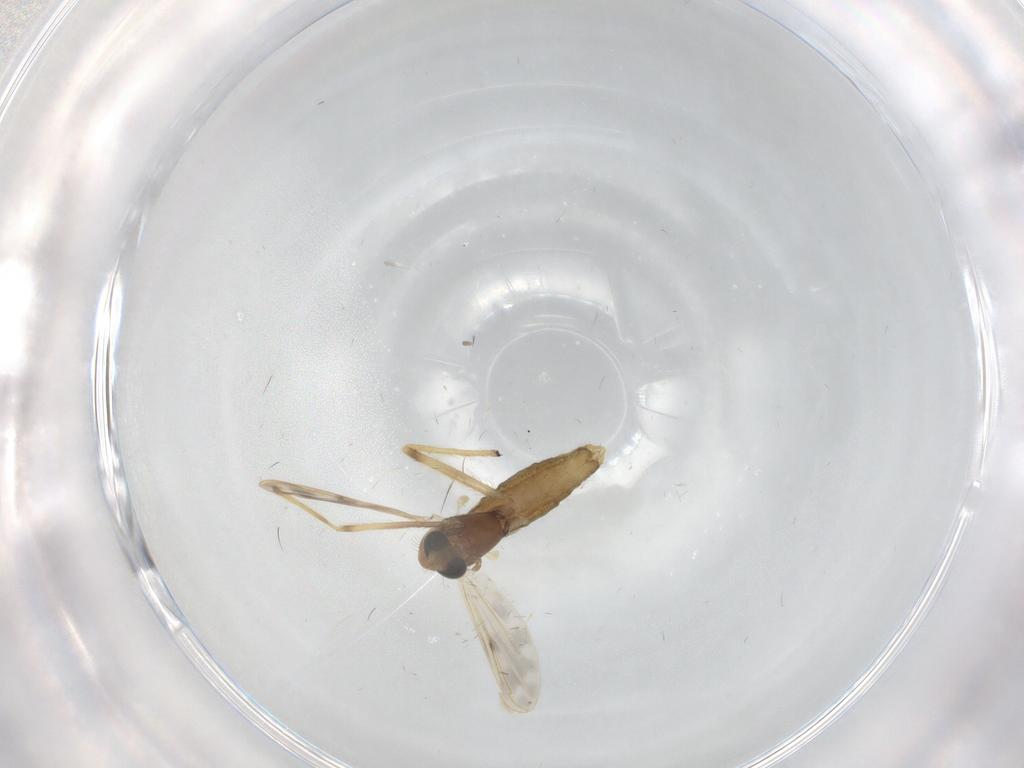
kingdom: Animalia
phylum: Arthropoda
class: Insecta
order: Diptera
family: Chironomidae
